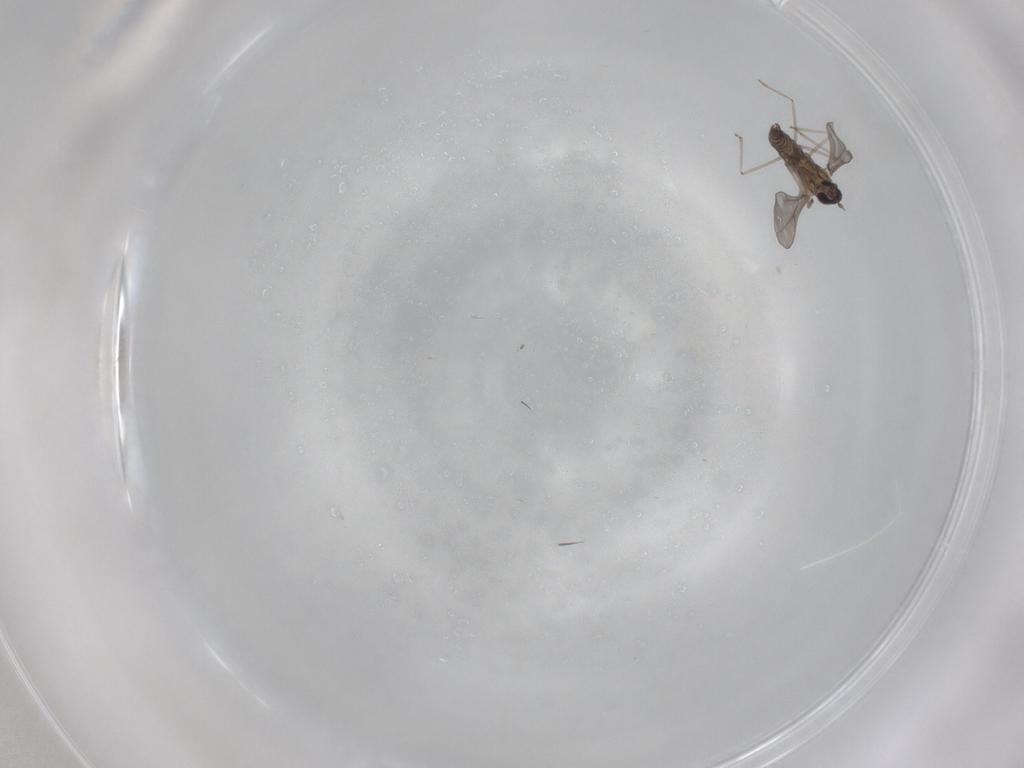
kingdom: Animalia
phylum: Arthropoda
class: Insecta
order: Diptera
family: Cecidomyiidae
